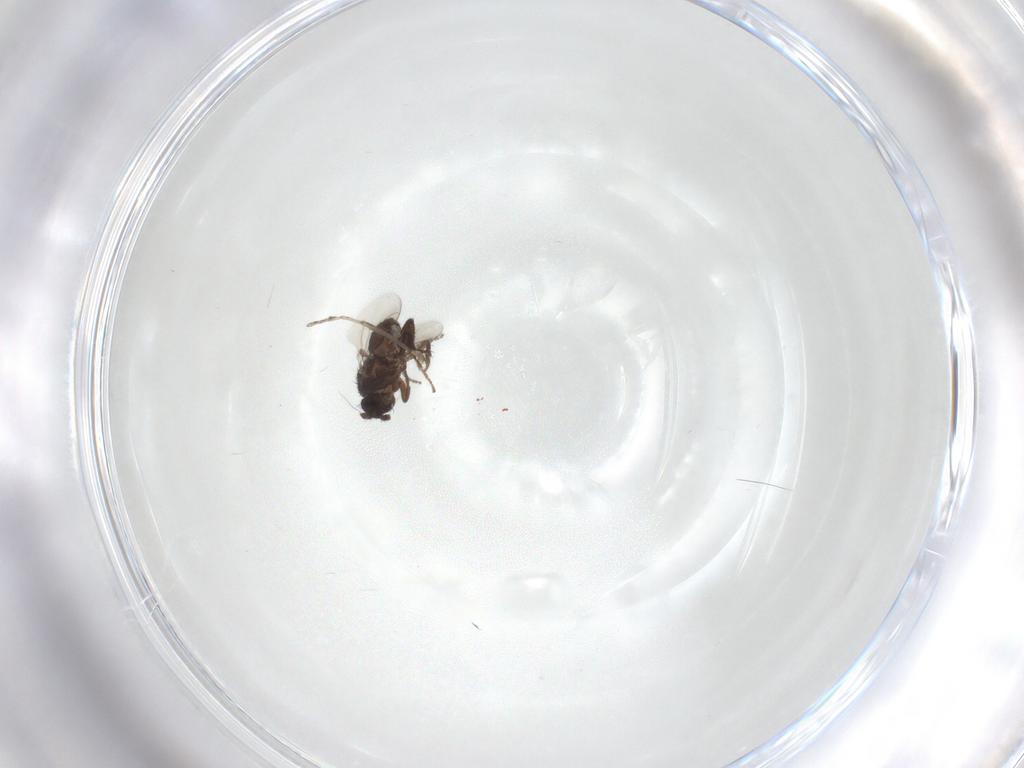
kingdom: Animalia
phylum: Arthropoda
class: Insecta
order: Diptera
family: Cecidomyiidae
